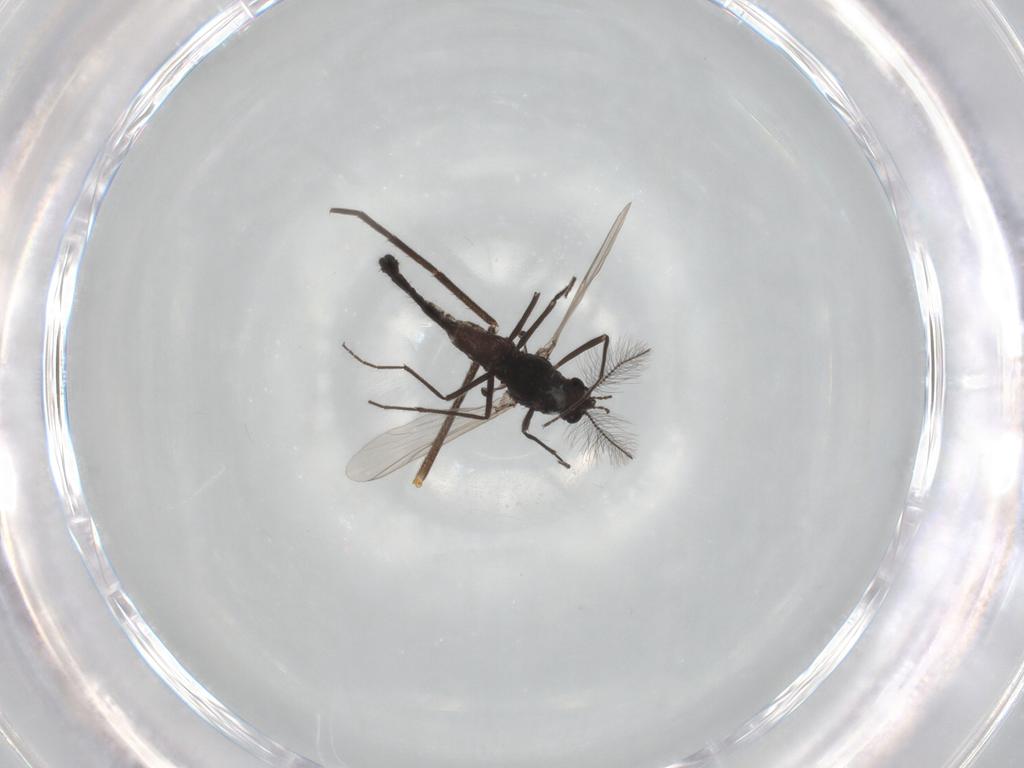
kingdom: Animalia
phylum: Arthropoda
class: Insecta
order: Diptera
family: Chironomidae
